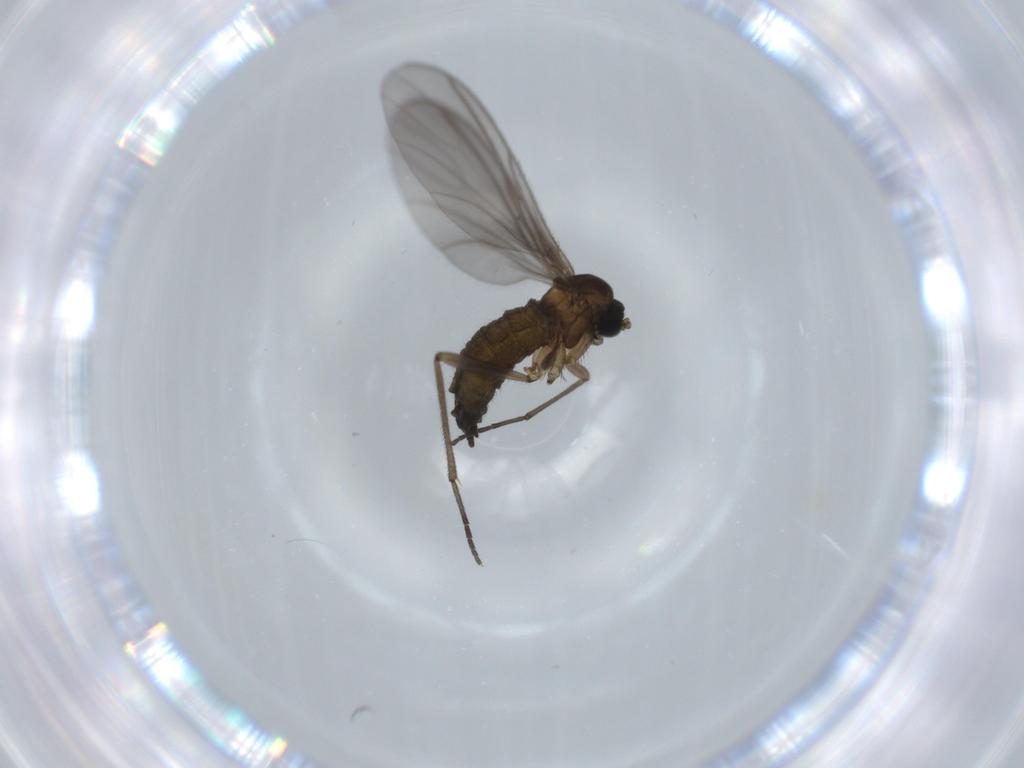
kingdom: Animalia
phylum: Arthropoda
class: Insecta
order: Diptera
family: Sciaridae
